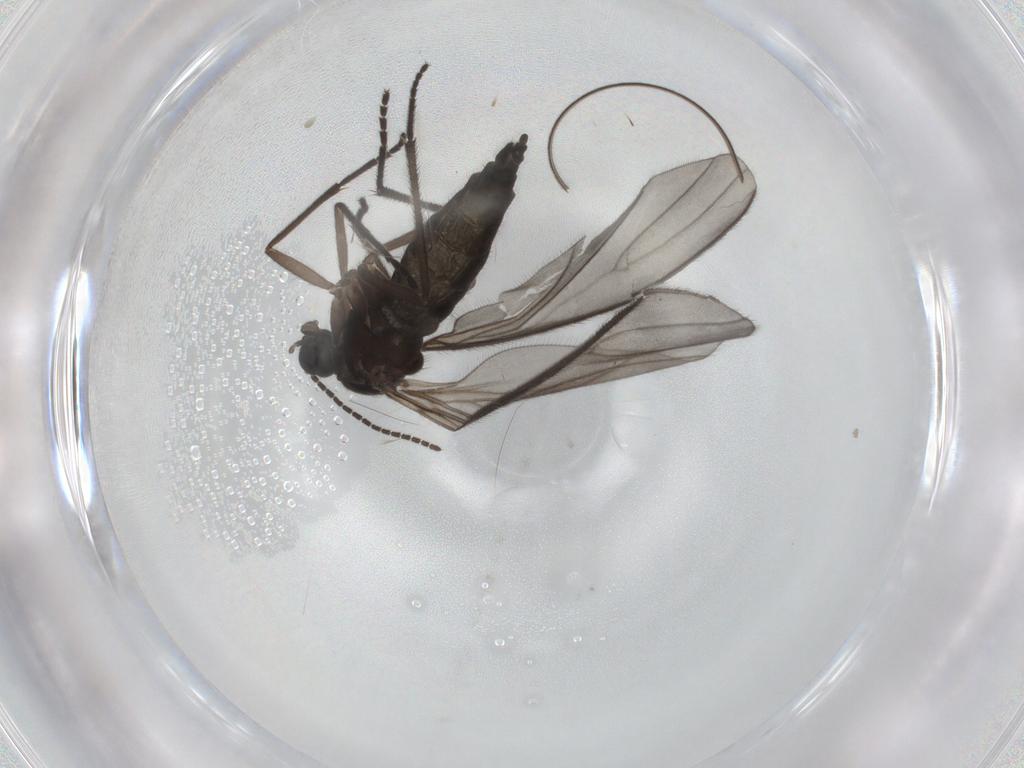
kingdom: Animalia
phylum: Arthropoda
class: Insecta
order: Diptera
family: Sciaridae
